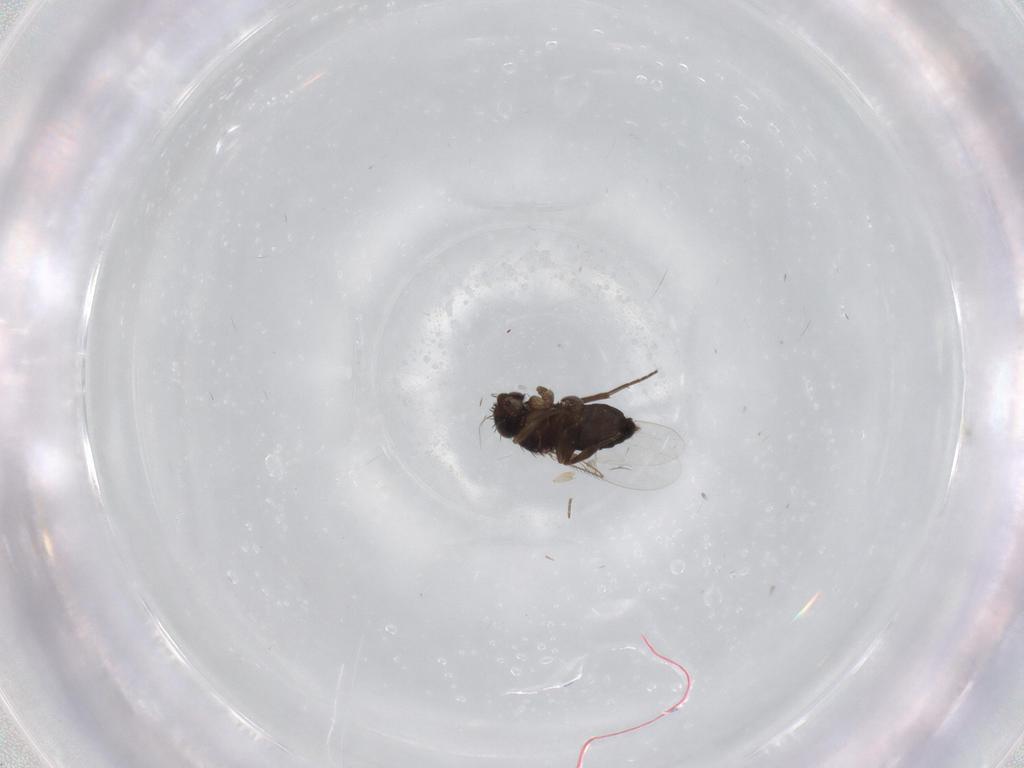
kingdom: Animalia
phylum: Arthropoda
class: Insecta
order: Diptera
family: Phoridae
